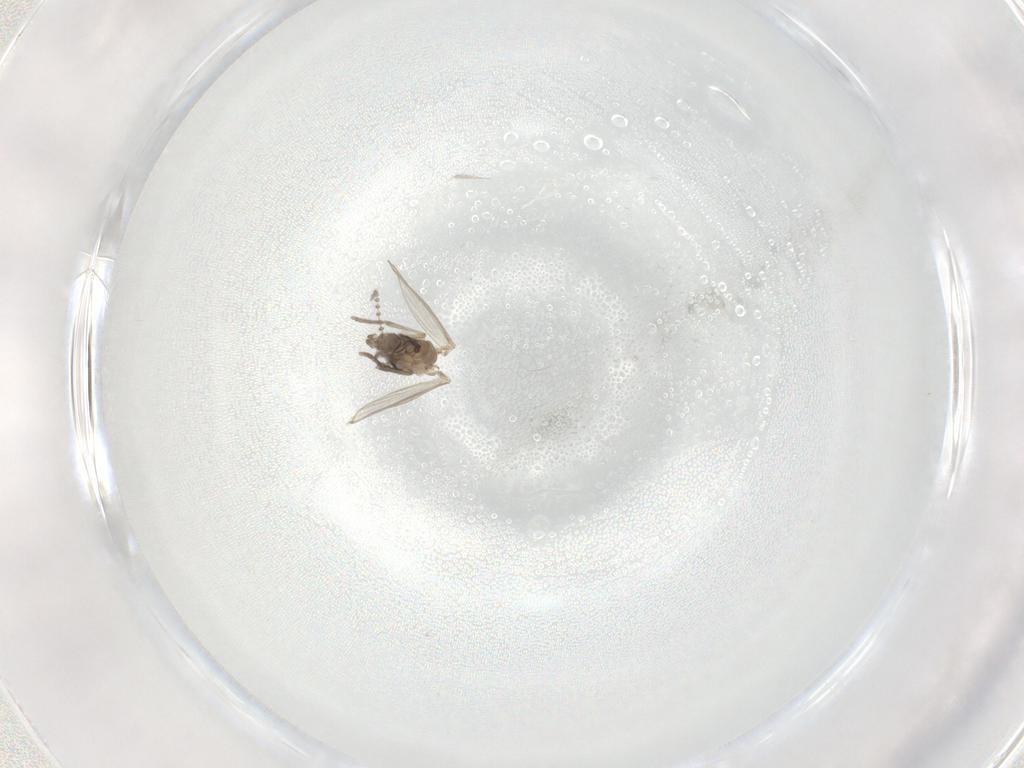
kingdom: Animalia
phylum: Arthropoda
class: Insecta
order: Diptera
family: Psychodidae
